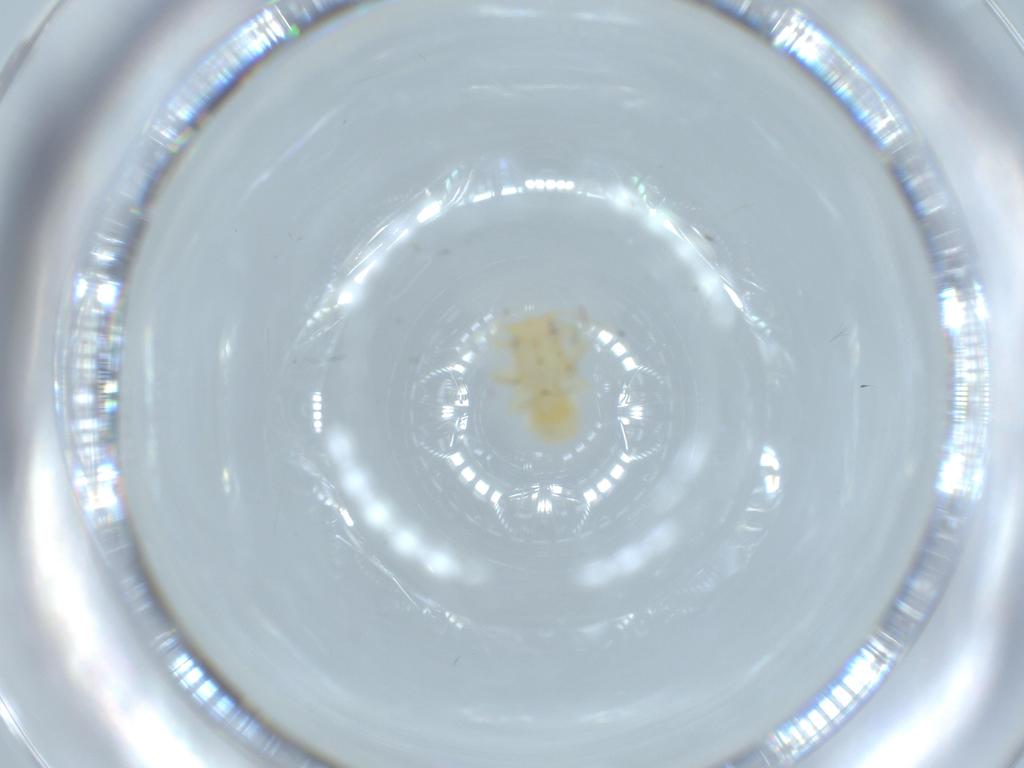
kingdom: Animalia
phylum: Arthropoda
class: Insecta
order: Hemiptera
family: Psyllidae
